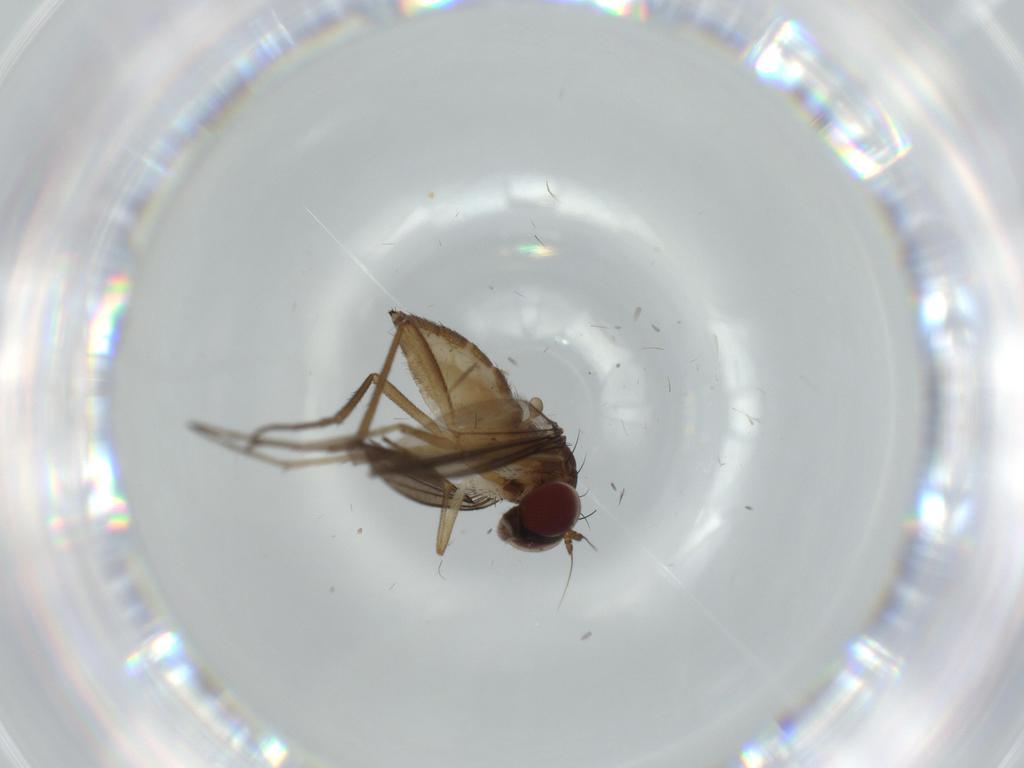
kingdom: Animalia
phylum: Arthropoda
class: Insecta
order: Diptera
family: Dolichopodidae
